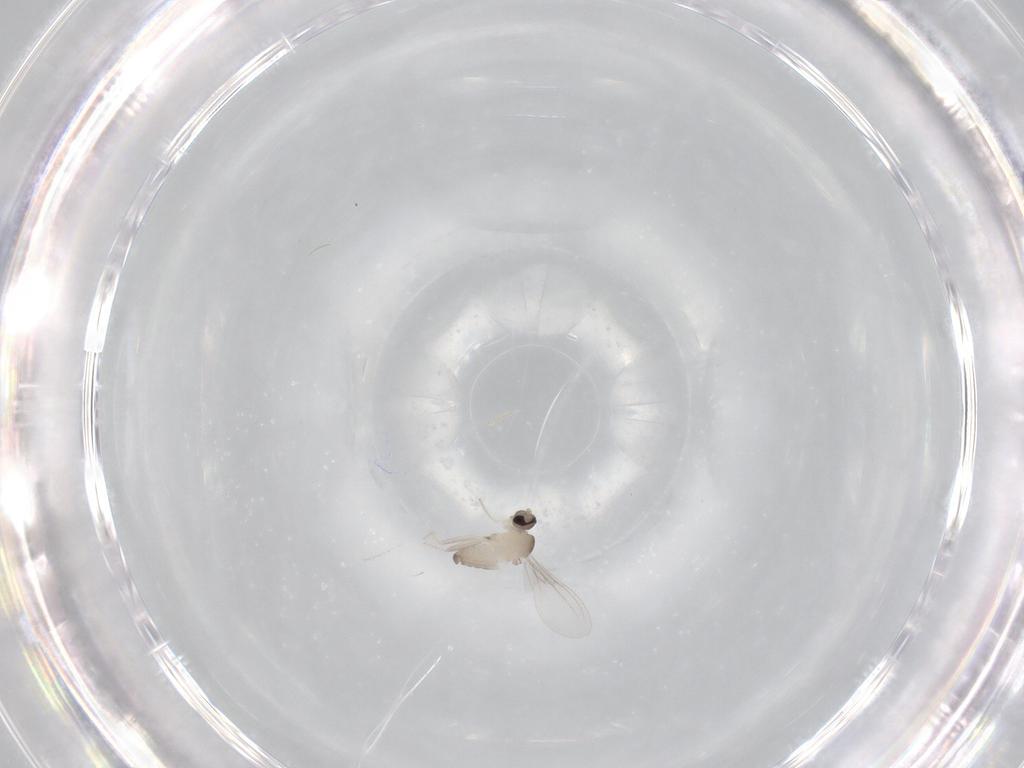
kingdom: Animalia
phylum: Arthropoda
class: Insecta
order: Diptera
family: Cecidomyiidae
